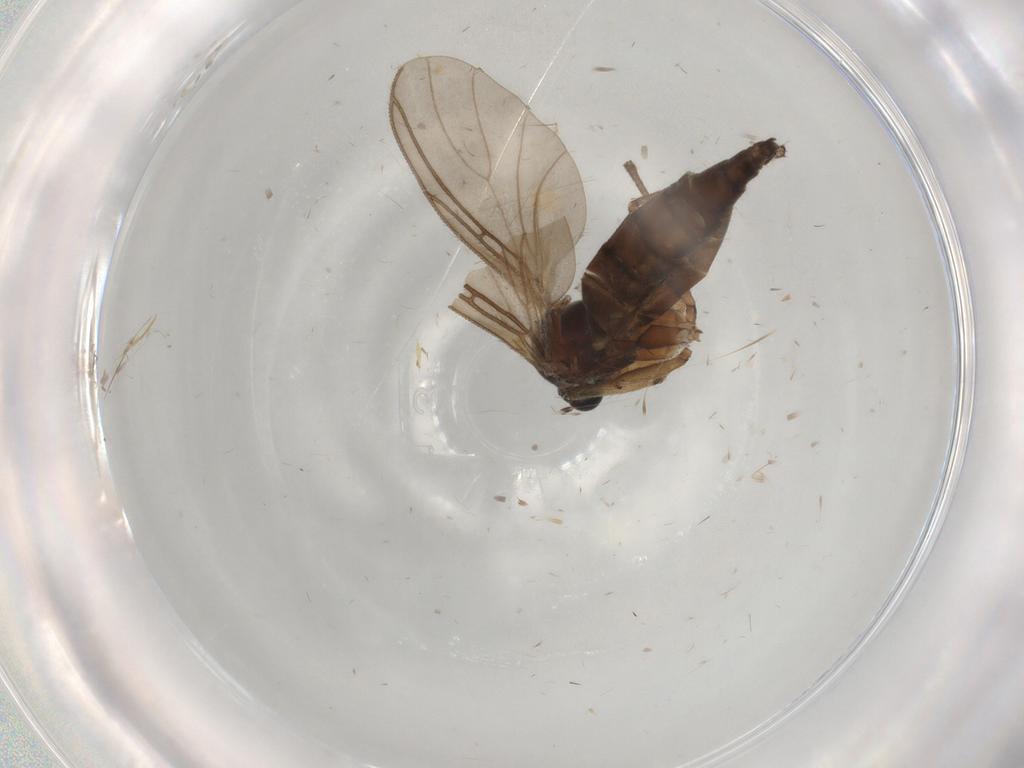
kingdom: Animalia
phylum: Arthropoda
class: Insecta
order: Diptera
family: Sciaridae
